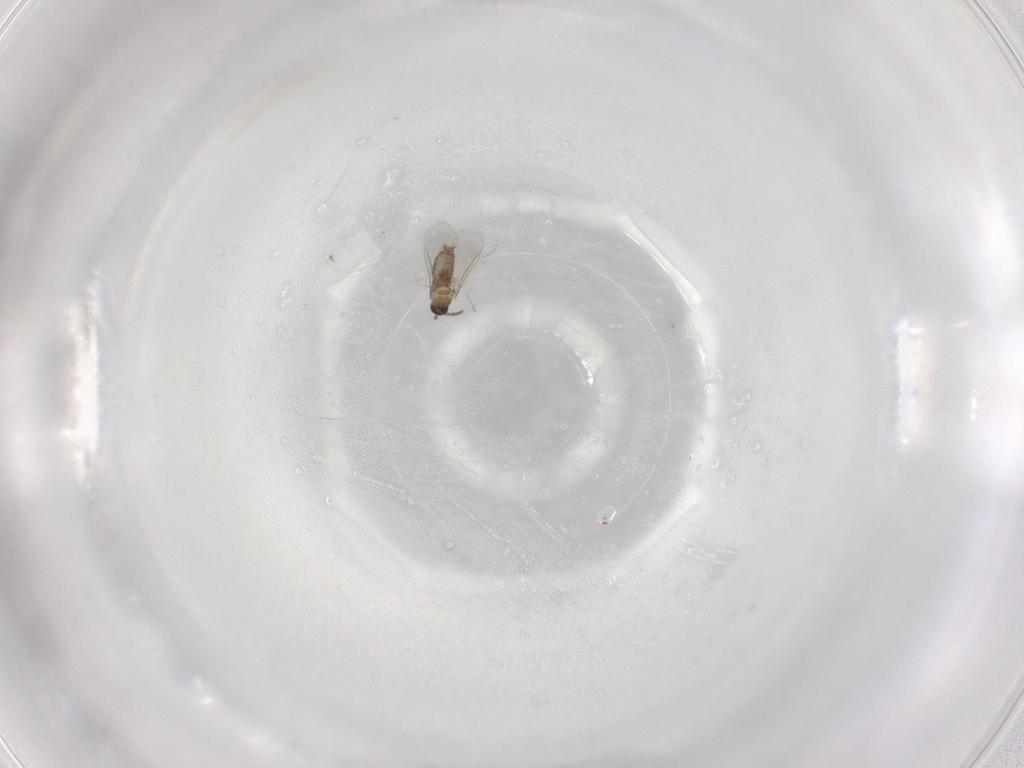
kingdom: Animalia
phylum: Arthropoda
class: Insecta
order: Diptera
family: Cecidomyiidae
